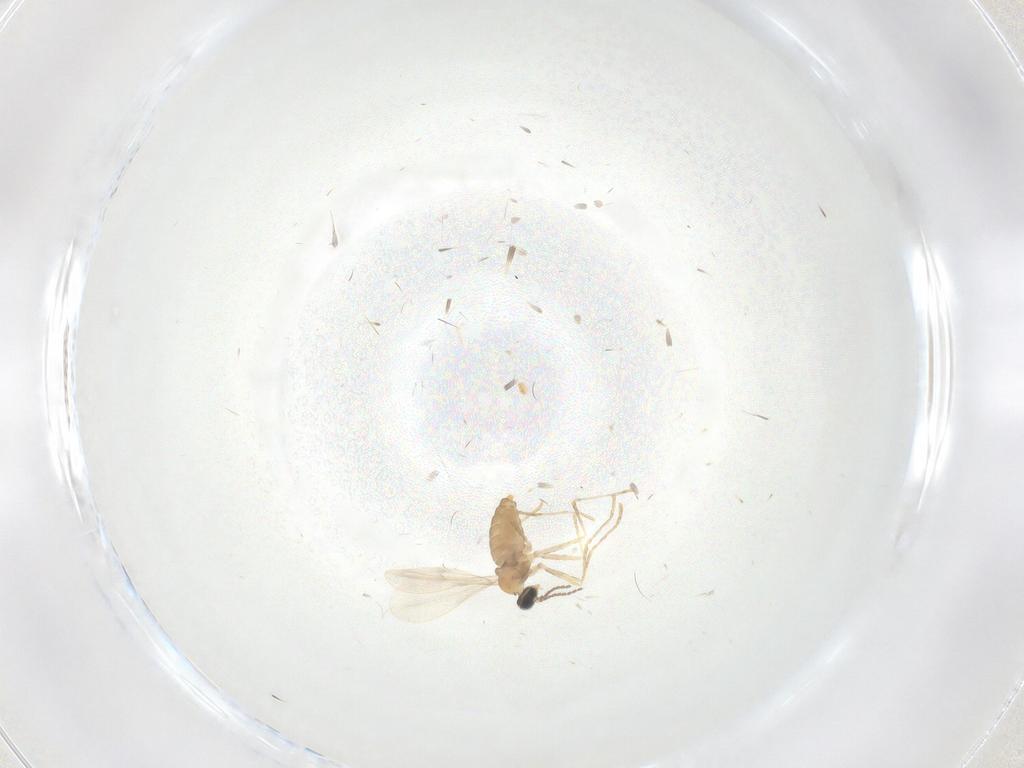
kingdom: Animalia
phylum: Arthropoda
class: Insecta
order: Diptera
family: Cecidomyiidae
